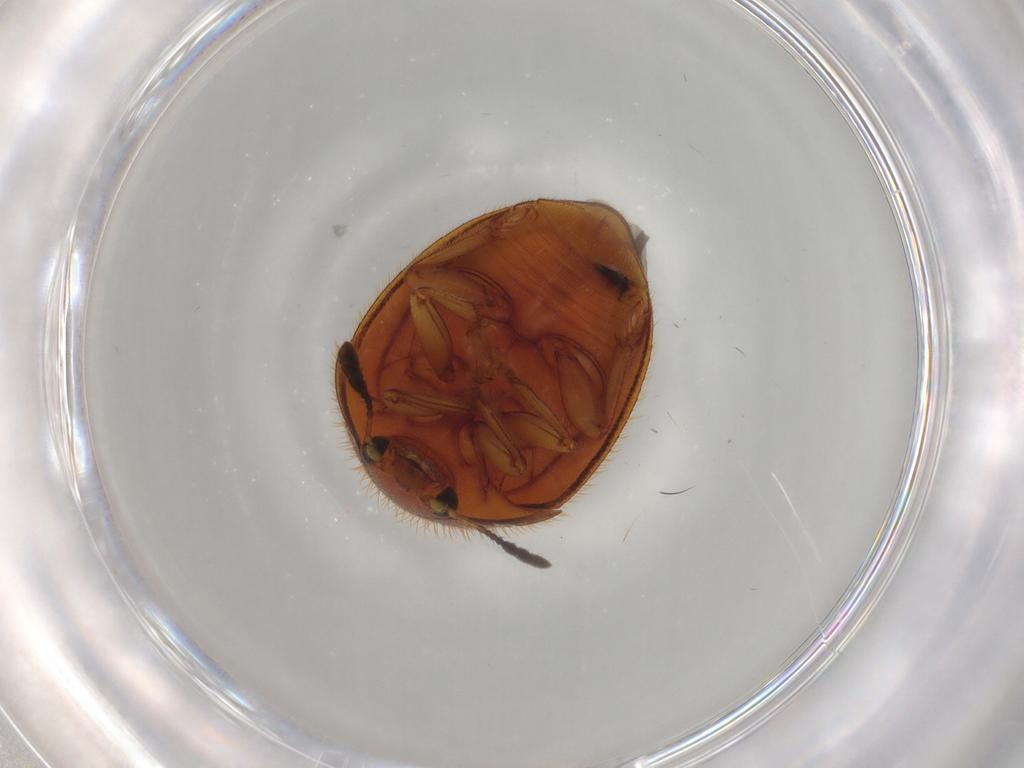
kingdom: Animalia
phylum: Arthropoda
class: Insecta
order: Coleoptera
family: Nitidulidae
